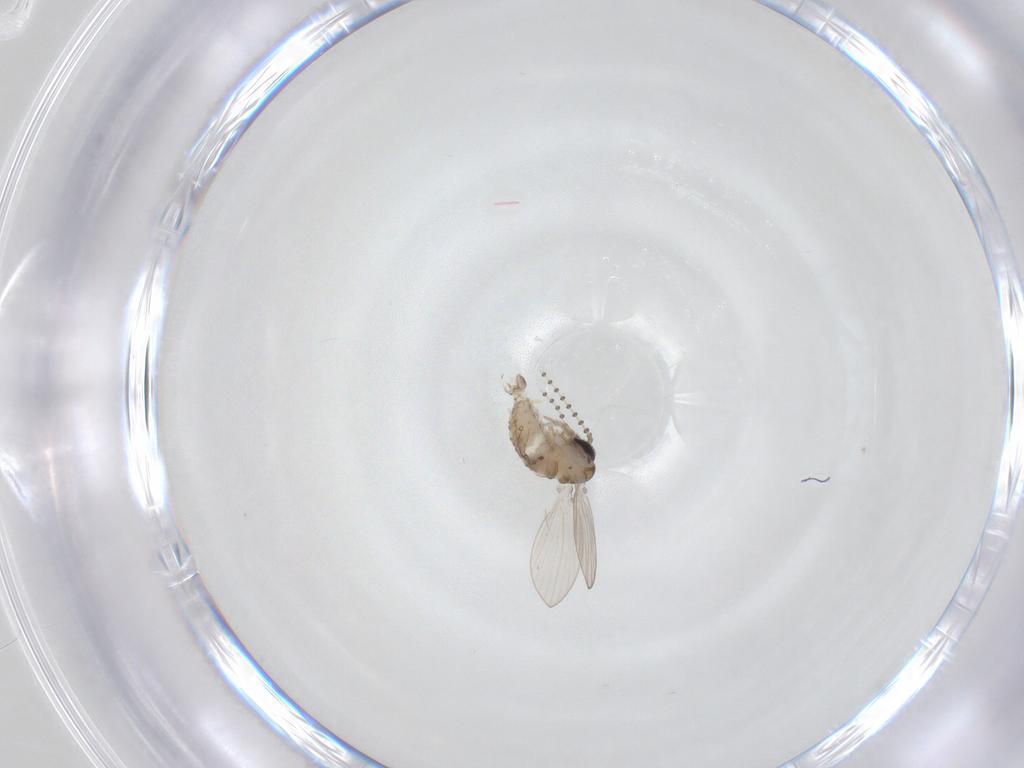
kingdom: Animalia
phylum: Arthropoda
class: Insecta
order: Diptera
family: Psychodidae
